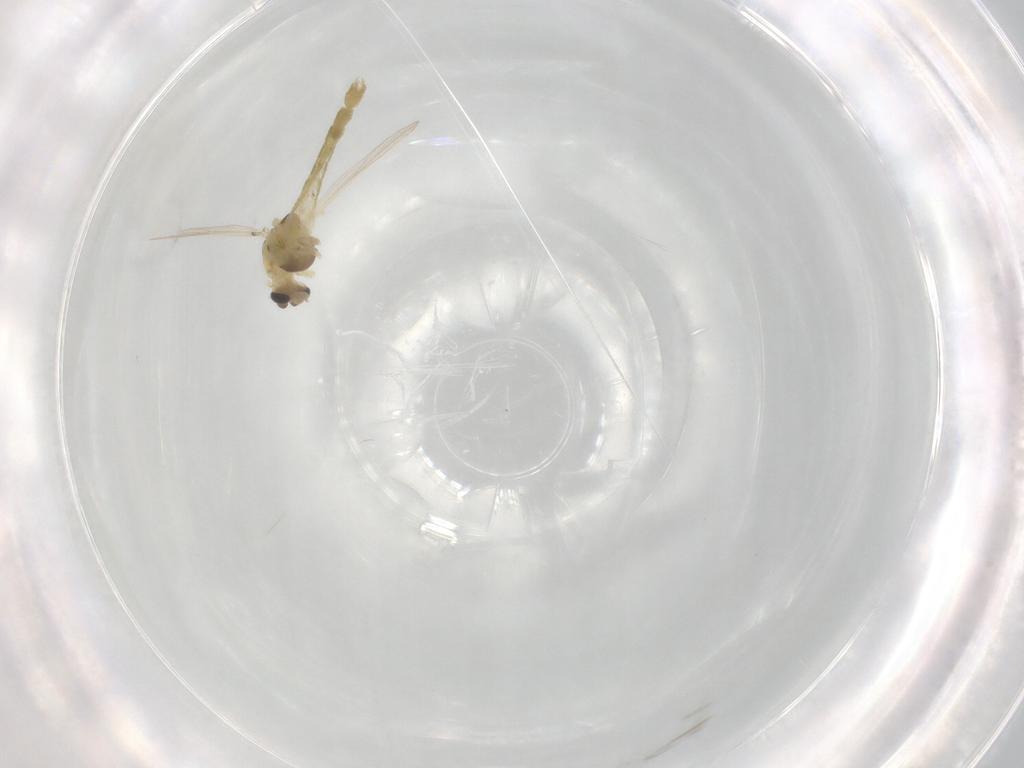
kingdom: Animalia
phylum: Arthropoda
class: Insecta
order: Diptera
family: Chironomidae
